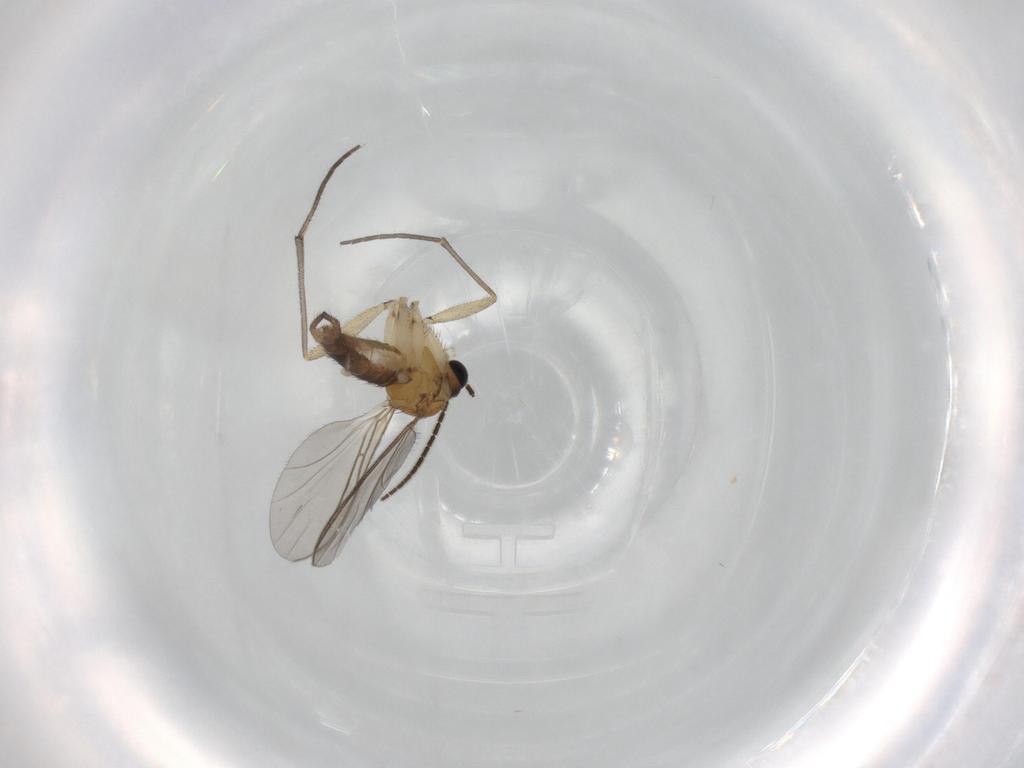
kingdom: Animalia
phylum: Arthropoda
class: Insecta
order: Diptera
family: Sciaridae
